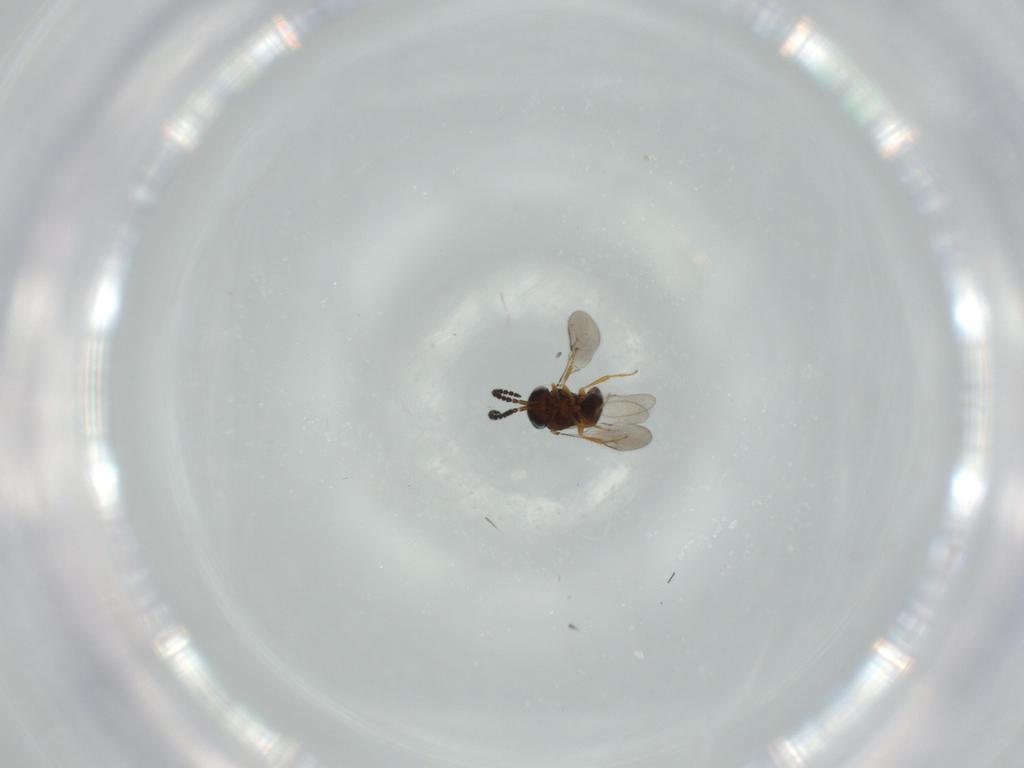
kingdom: Animalia
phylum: Arthropoda
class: Insecta
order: Hymenoptera
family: Scelionidae
